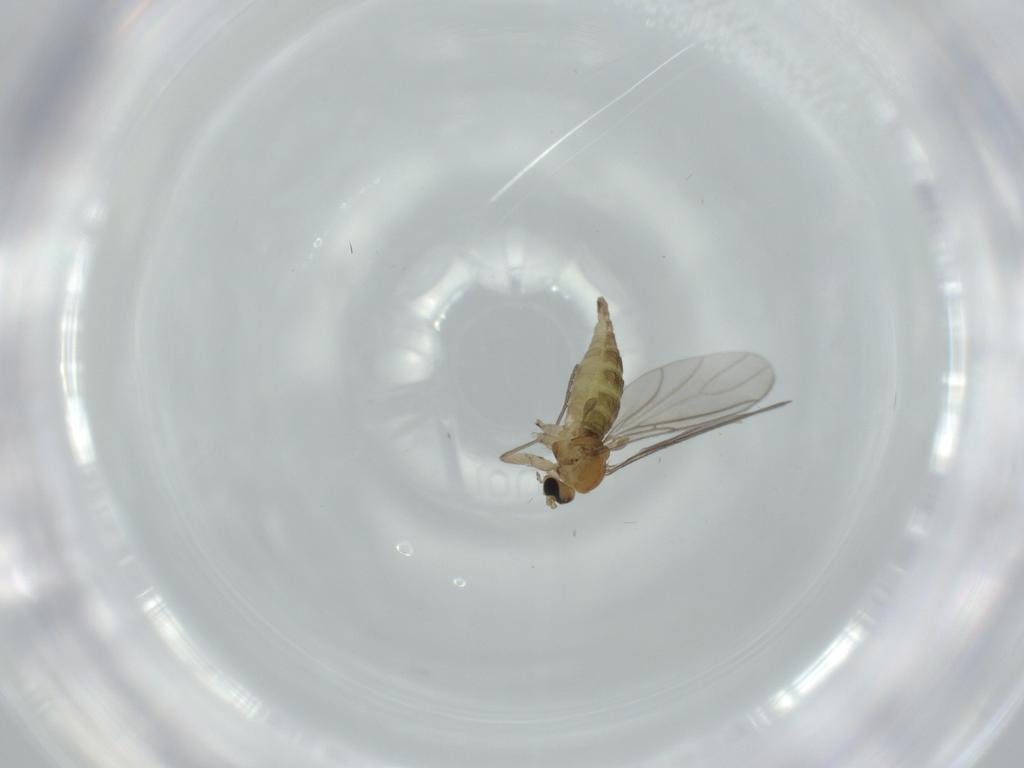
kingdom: Animalia
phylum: Arthropoda
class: Insecta
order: Diptera
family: Sciaridae
